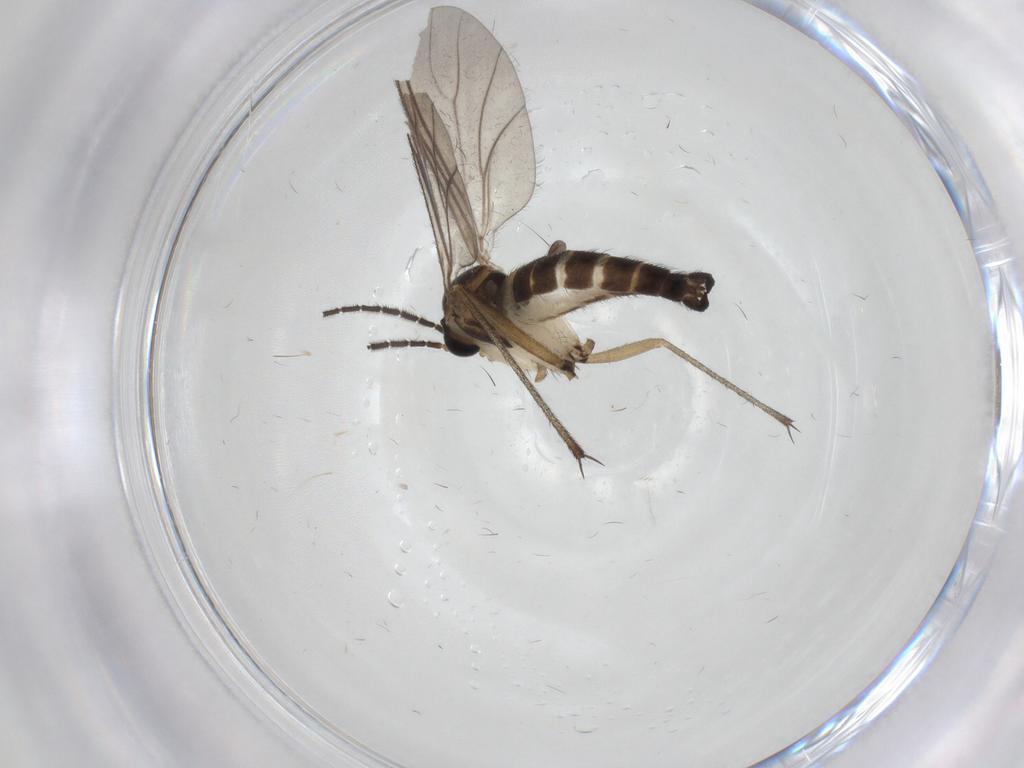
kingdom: Animalia
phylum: Arthropoda
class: Insecta
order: Diptera
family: Sciaridae
